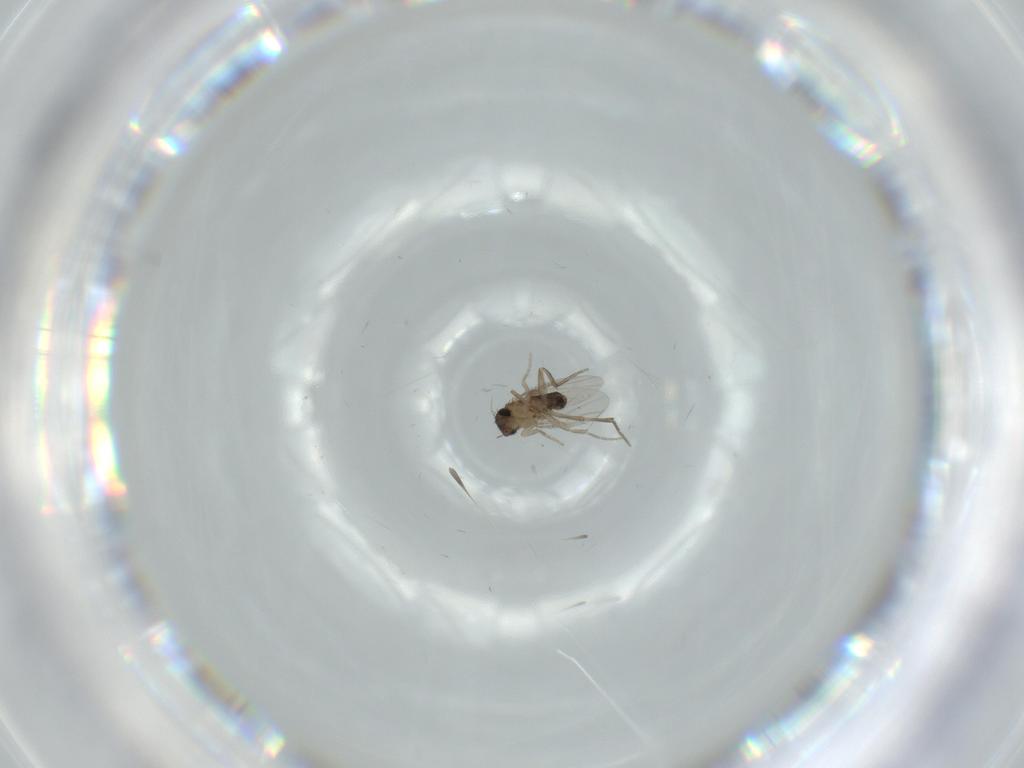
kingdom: Animalia
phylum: Arthropoda
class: Insecta
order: Diptera
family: Phoridae
